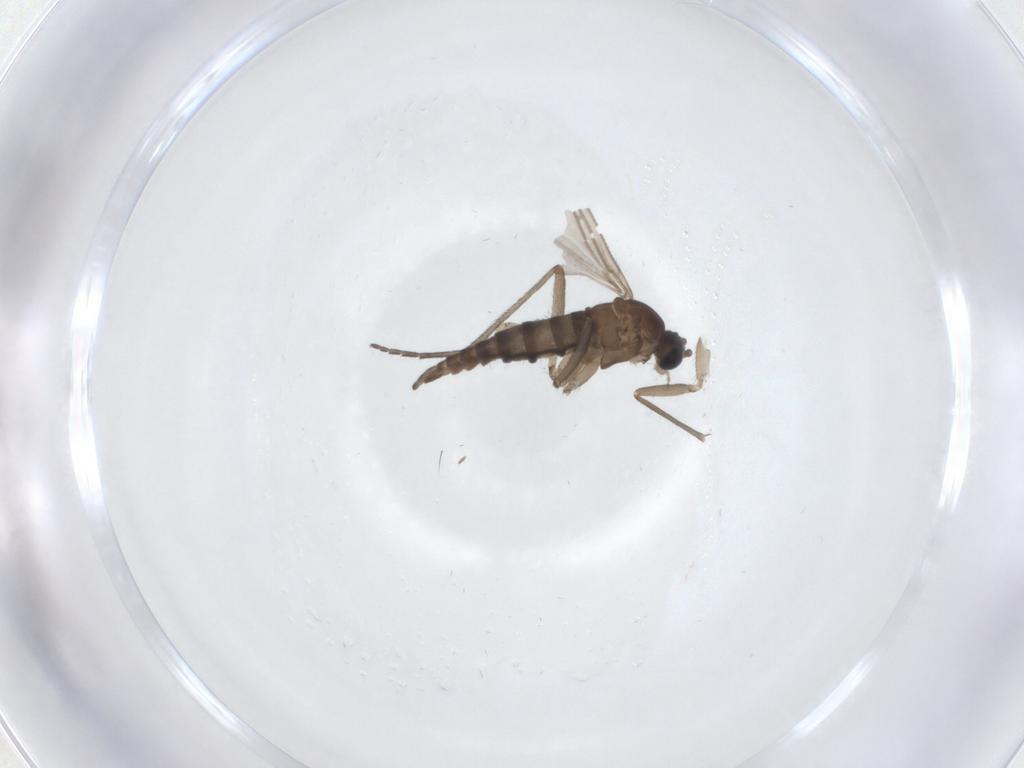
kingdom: Animalia
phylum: Arthropoda
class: Insecta
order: Diptera
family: Sciaridae
